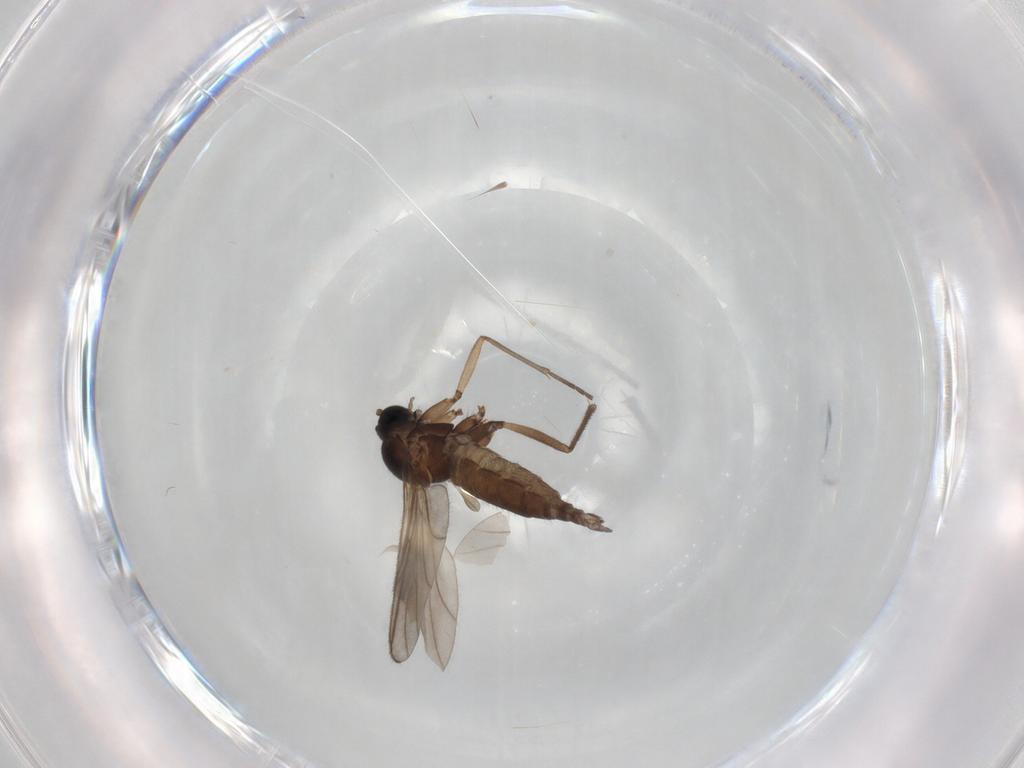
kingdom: Animalia
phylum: Arthropoda
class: Insecta
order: Diptera
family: Sciaridae
